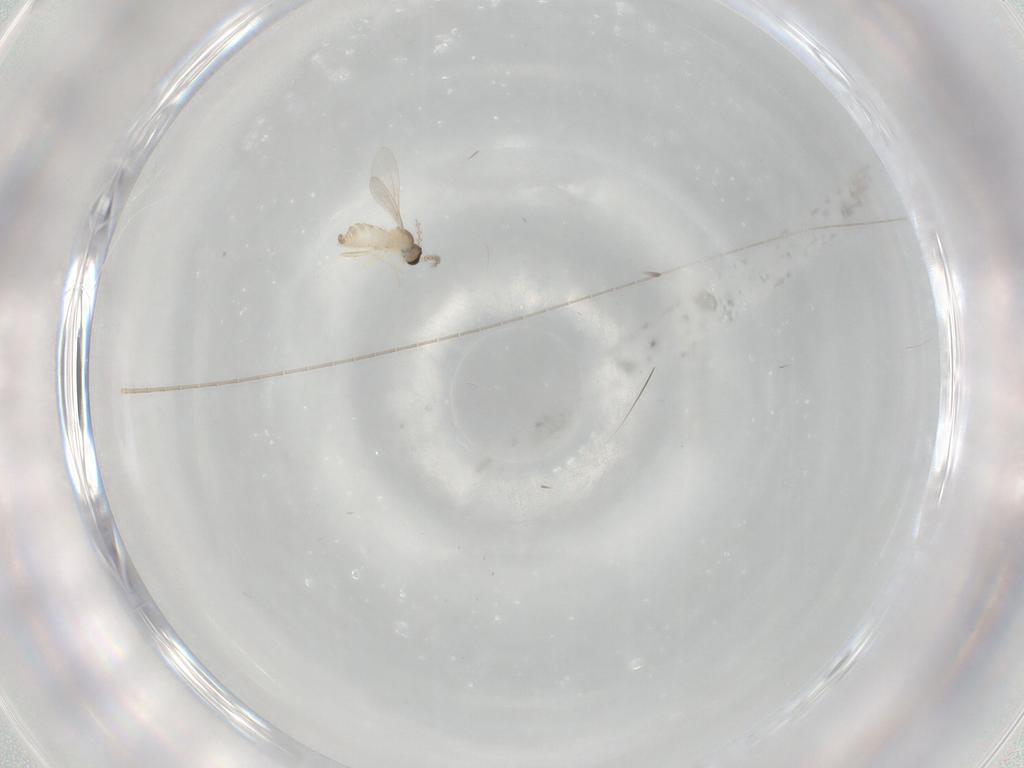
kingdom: Animalia
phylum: Arthropoda
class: Insecta
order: Diptera
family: Cecidomyiidae
